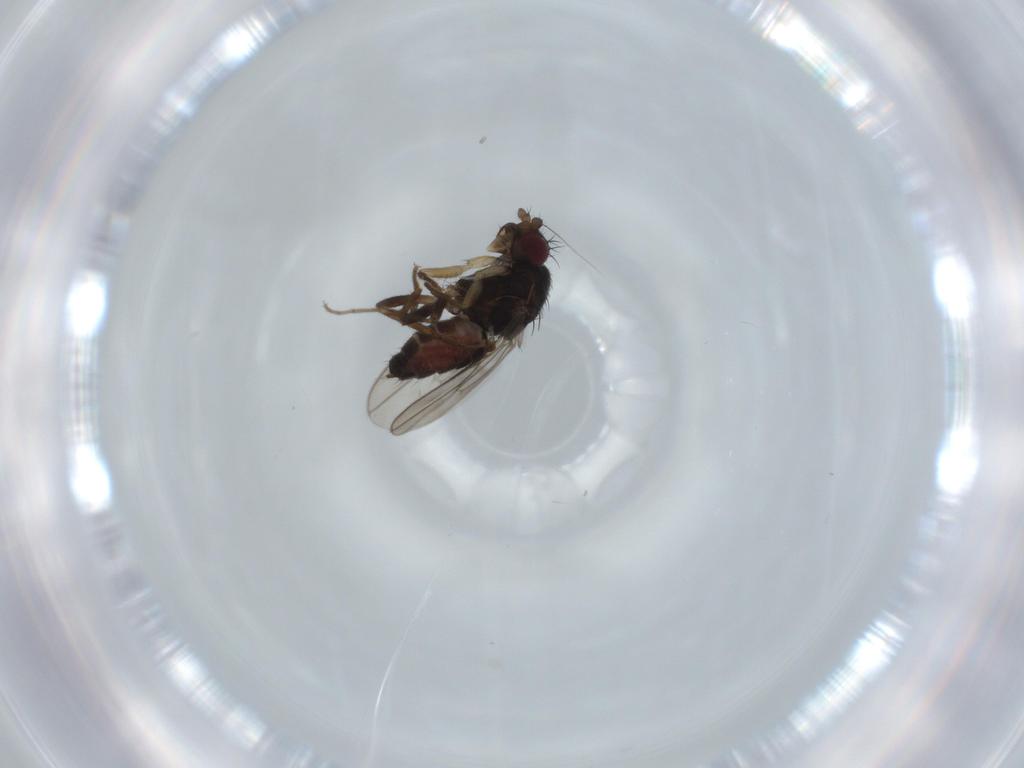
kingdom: Animalia
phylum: Arthropoda
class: Insecta
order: Diptera
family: Sphaeroceridae
